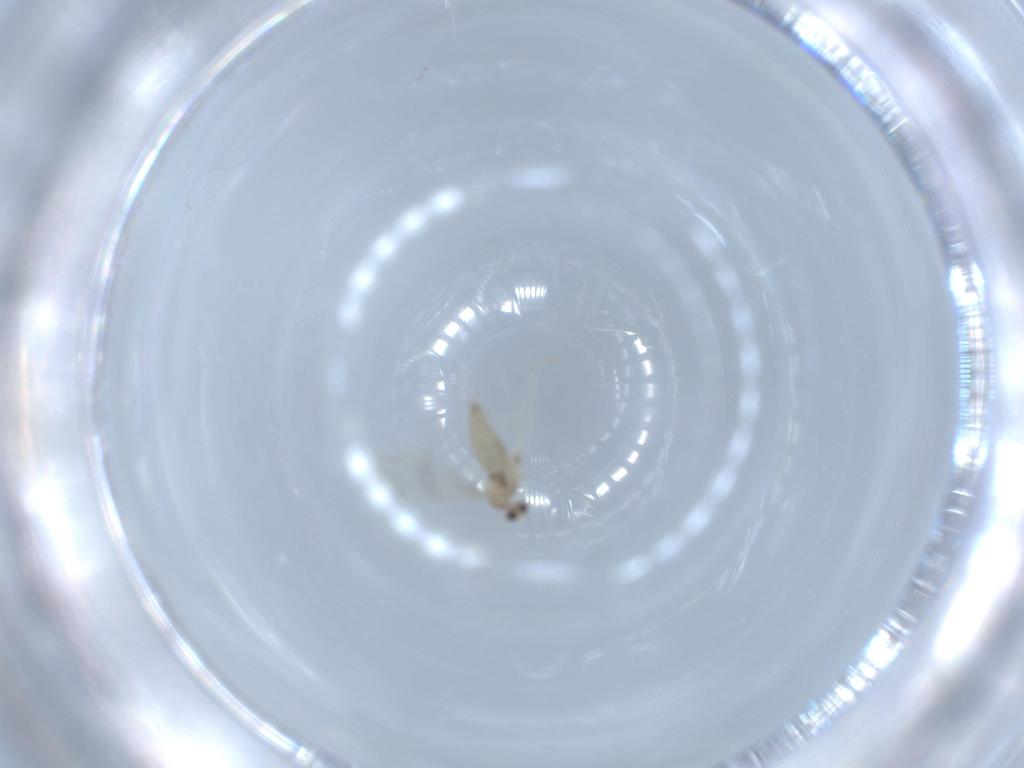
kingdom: Animalia
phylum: Arthropoda
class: Insecta
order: Diptera
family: Cecidomyiidae
